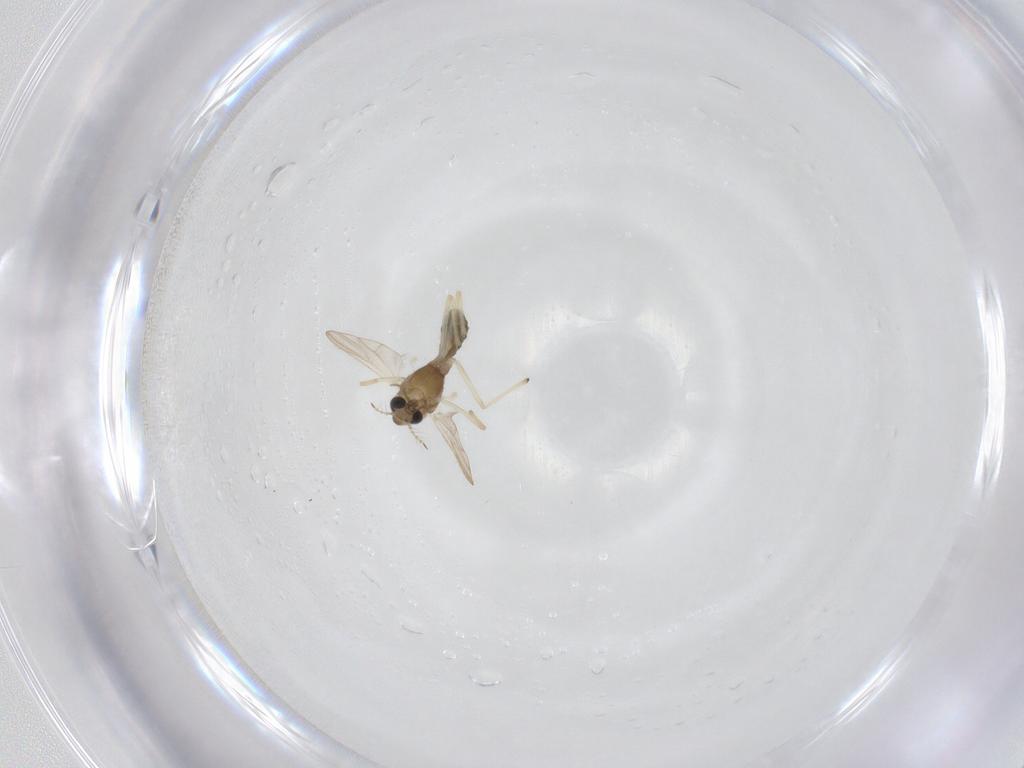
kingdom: Animalia
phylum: Arthropoda
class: Insecta
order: Diptera
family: Chironomidae
